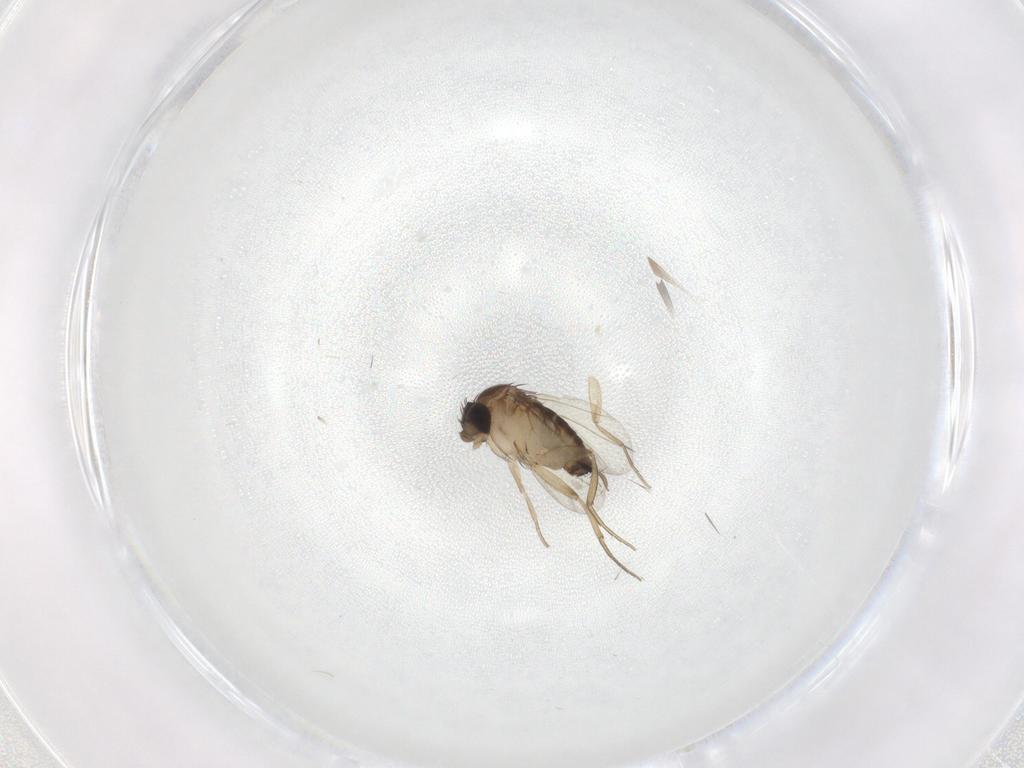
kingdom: Animalia
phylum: Arthropoda
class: Insecta
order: Diptera
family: Cecidomyiidae
